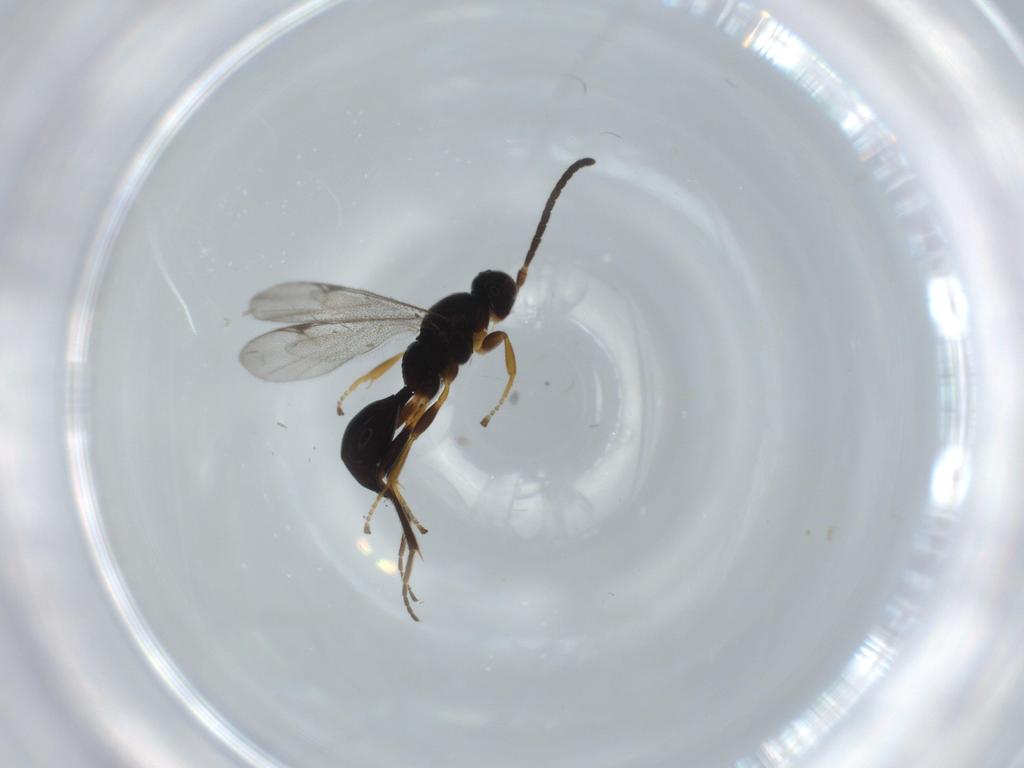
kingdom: Animalia
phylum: Arthropoda
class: Insecta
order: Hymenoptera
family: Proctotrupidae
